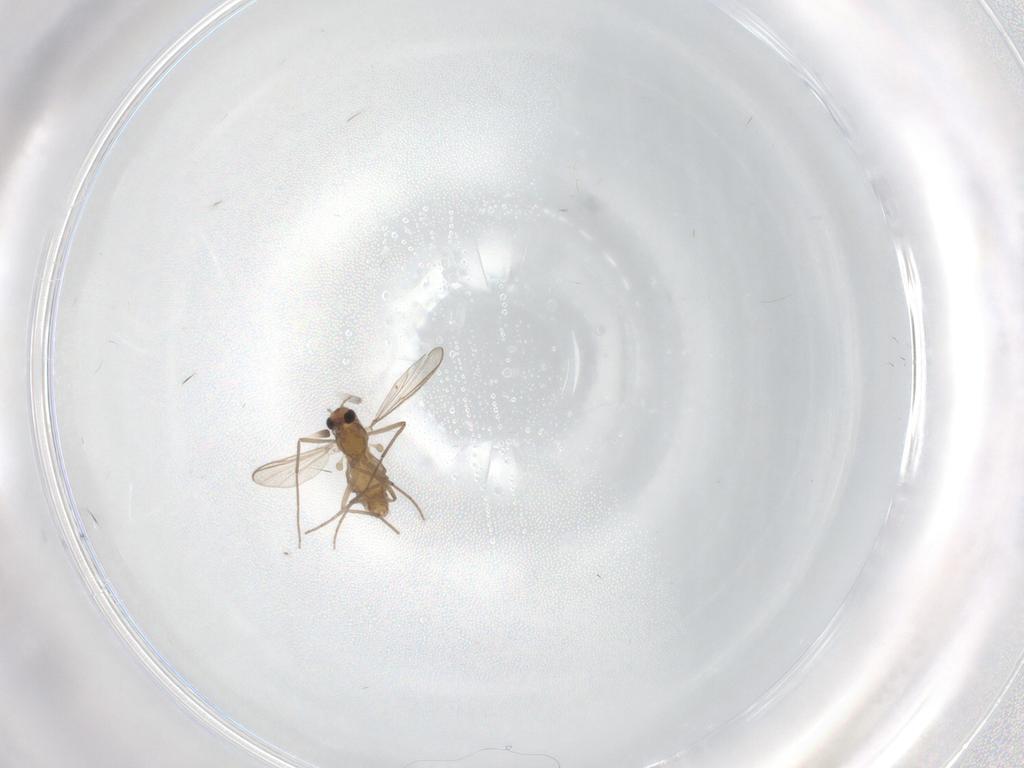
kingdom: Animalia
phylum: Arthropoda
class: Insecta
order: Diptera
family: Chironomidae
